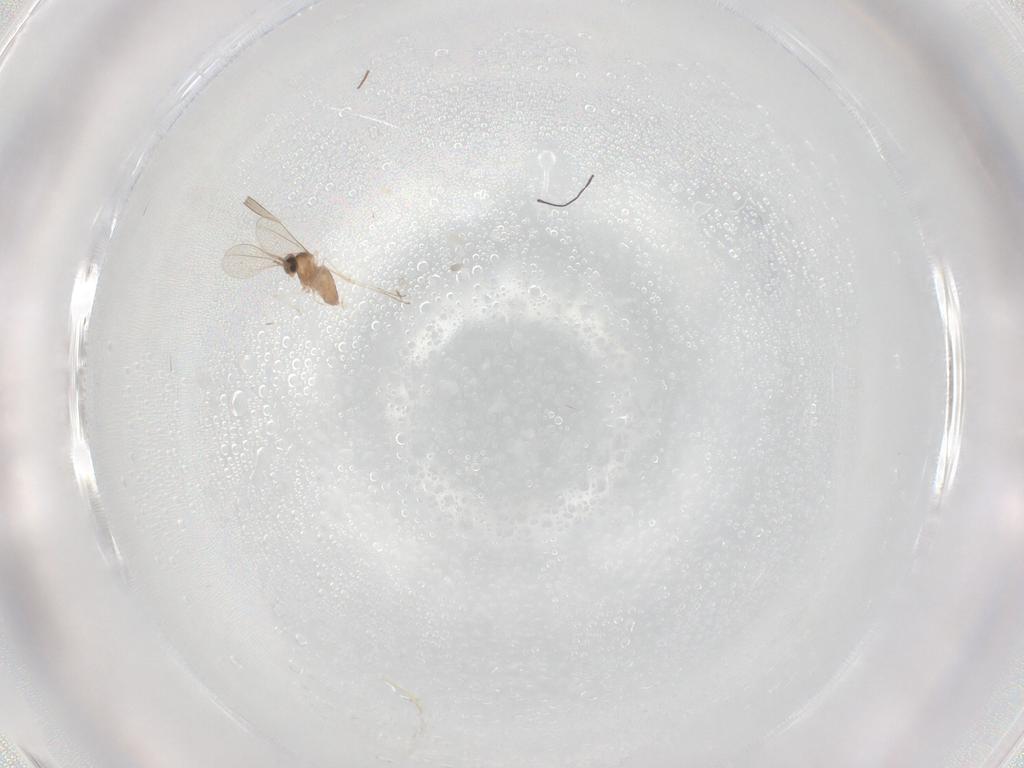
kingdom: Animalia
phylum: Arthropoda
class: Insecta
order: Diptera
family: Cecidomyiidae
